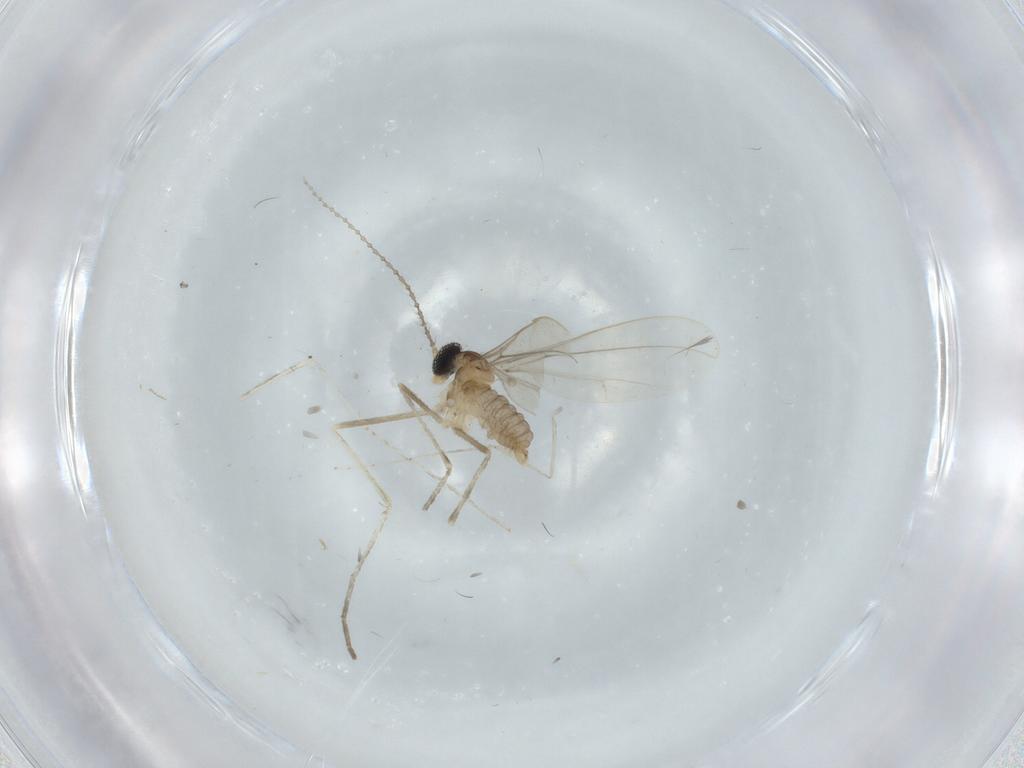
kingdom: Animalia
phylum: Arthropoda
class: Insecta
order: Diptera
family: Cecidomyiidae
